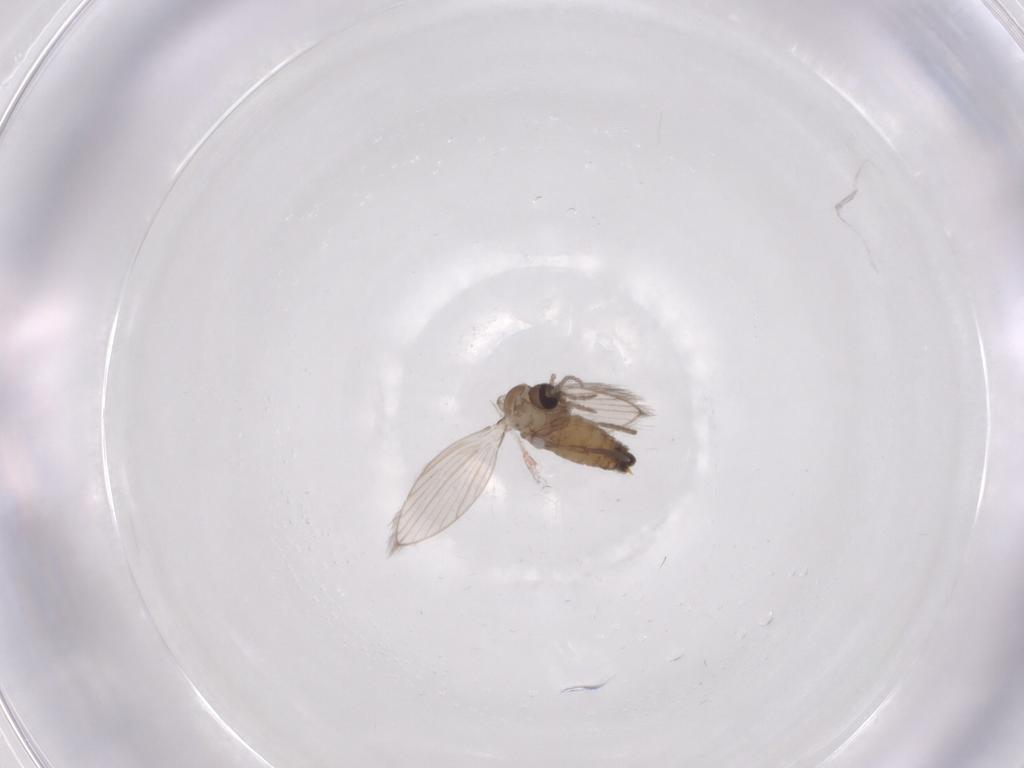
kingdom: Animalia
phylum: Arthropoda
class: Insecta
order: Diptera
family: Psychodidae
